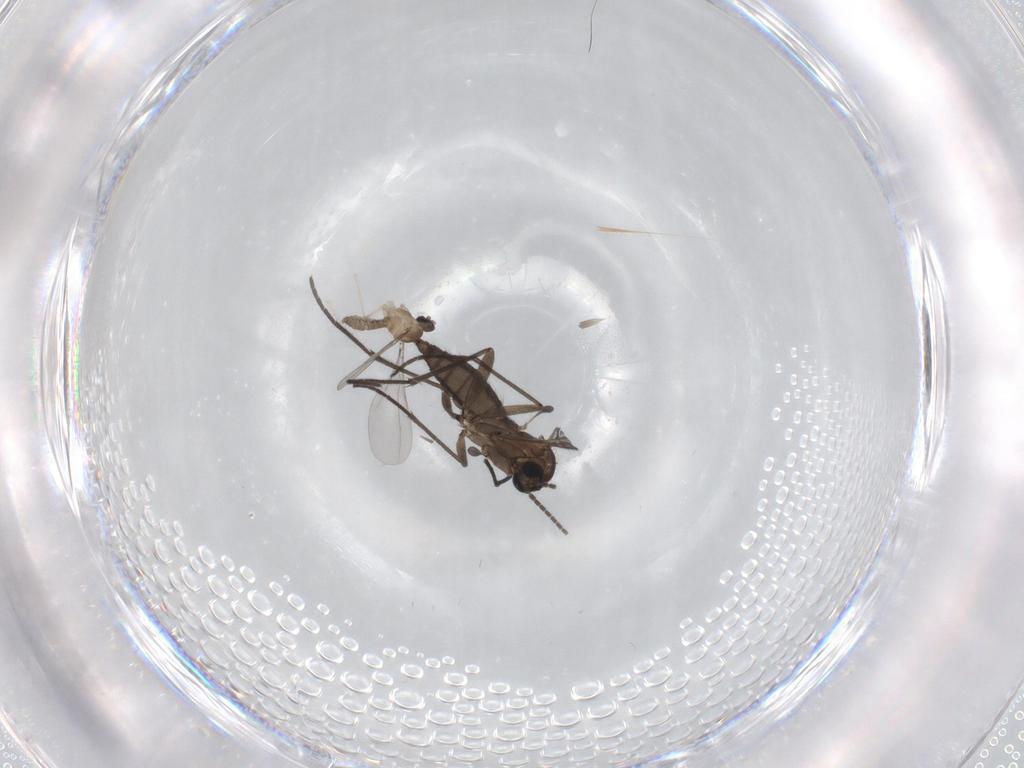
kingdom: Animalia
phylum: Arthropoda
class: Insecta
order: Diptera
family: Sciaridae
